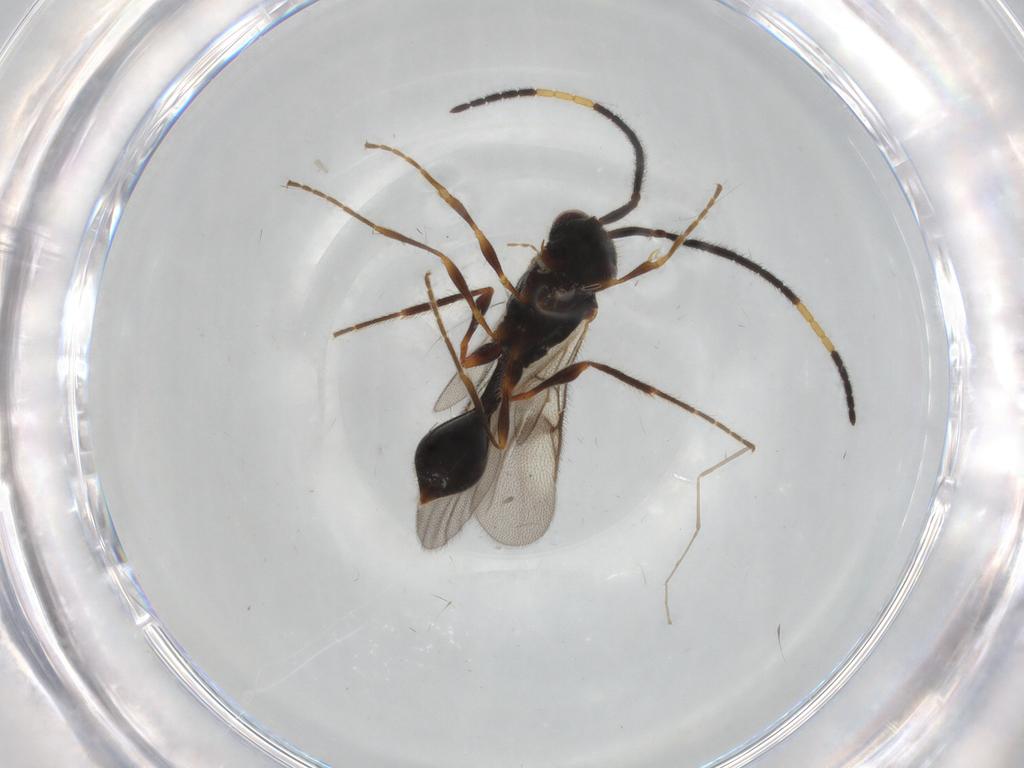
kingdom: Animalia
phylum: Arthropoda
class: Insecta
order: Hymenoptera
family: Diapriidae
